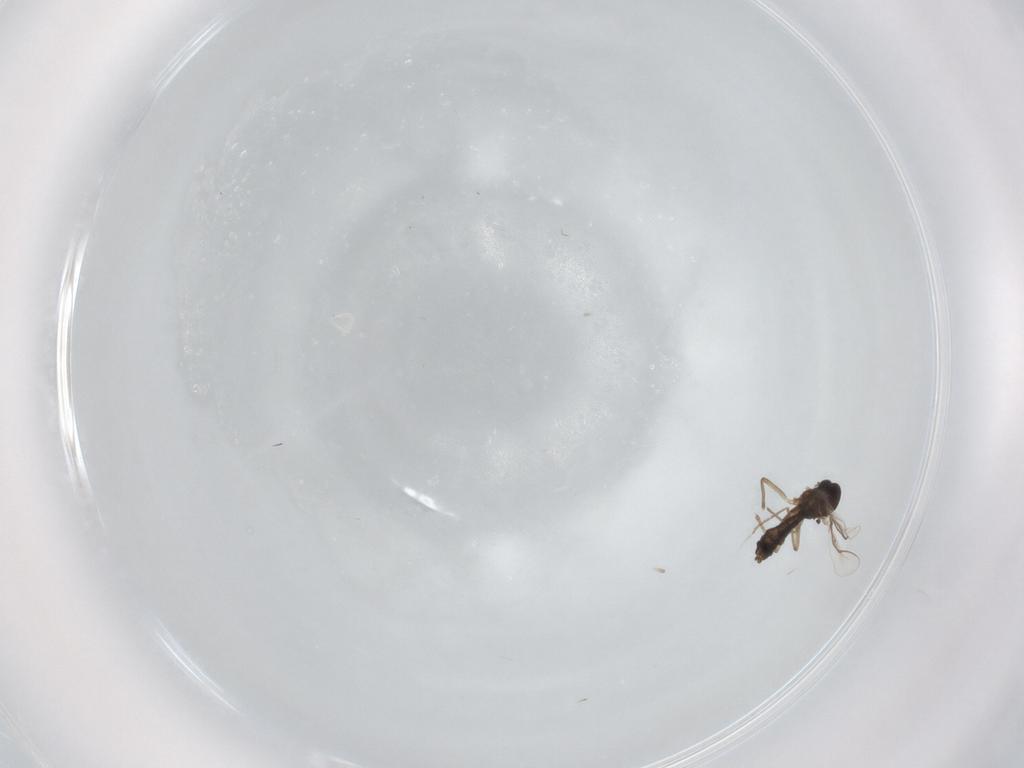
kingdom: Animalia
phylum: Arthropoda
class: Insecta
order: Diptera
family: Chironomidae
